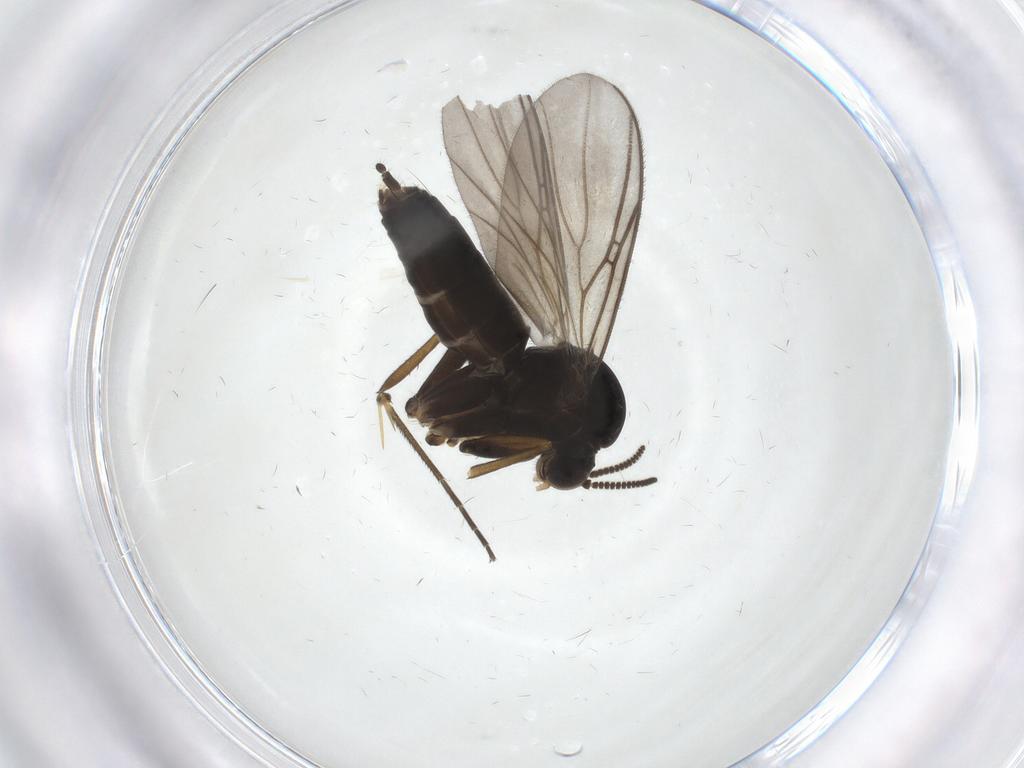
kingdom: Animalia
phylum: Arthropoda
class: Insecta
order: Diptera
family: Mycetophilidae
